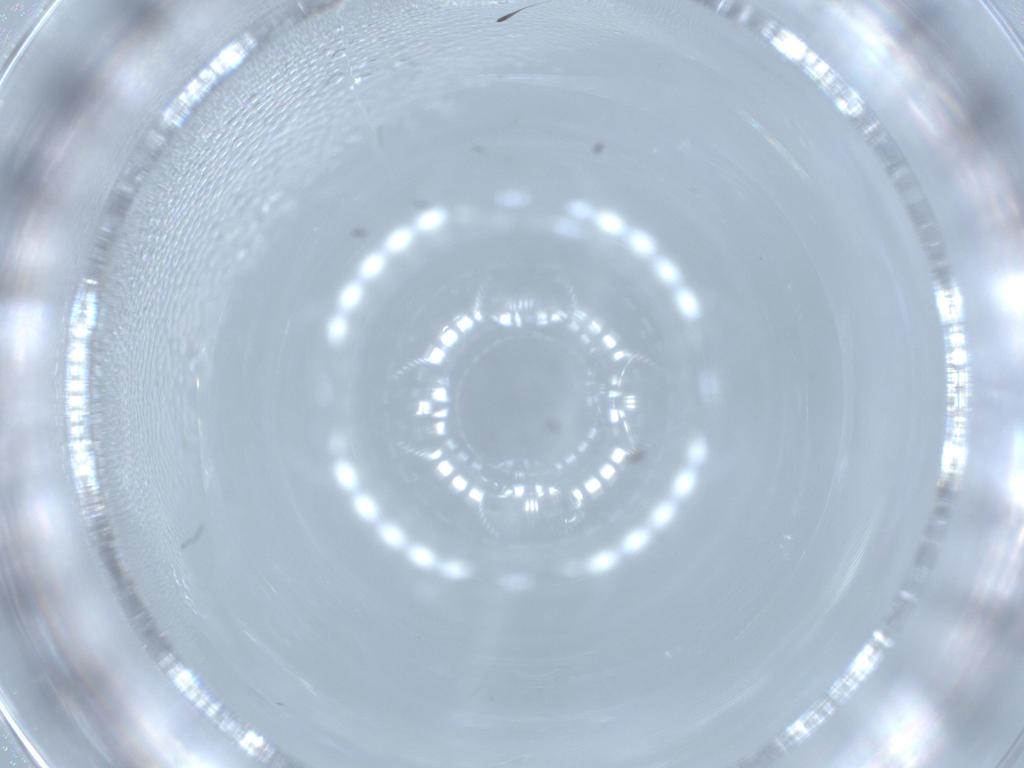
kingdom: Animalia
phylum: Arthropoda
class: Insecta
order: Hymenoptera
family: Mymaridae
